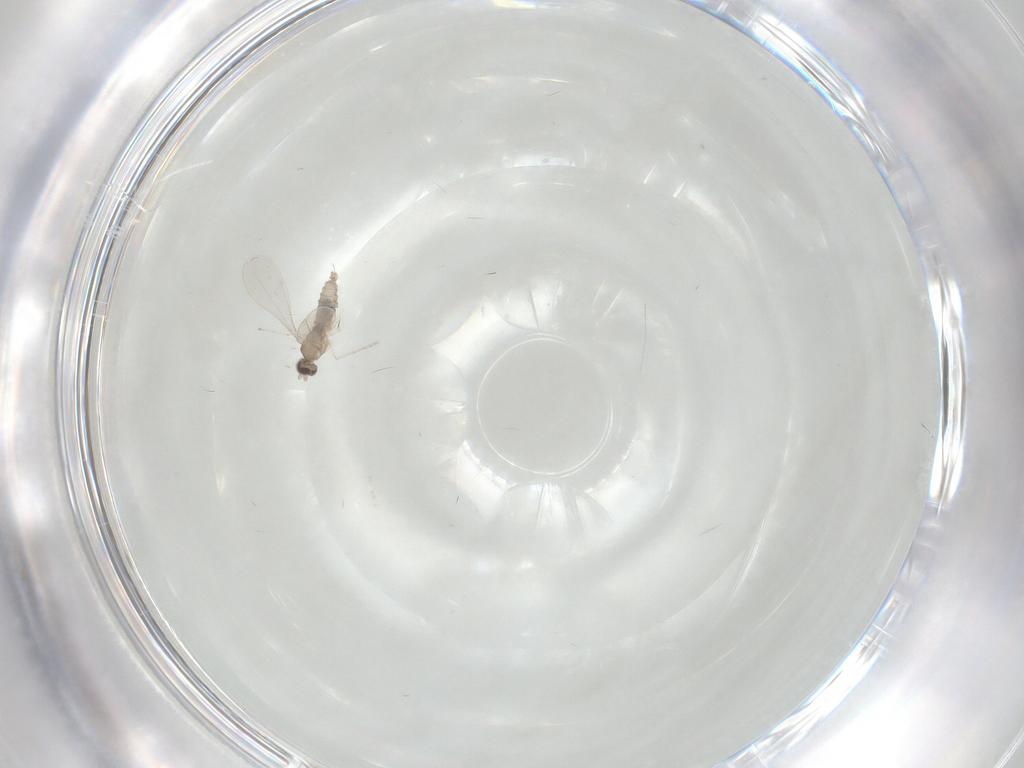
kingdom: Animalia
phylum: Arthropoda
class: Insecta
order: Diptera
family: Cecidomyiidae
